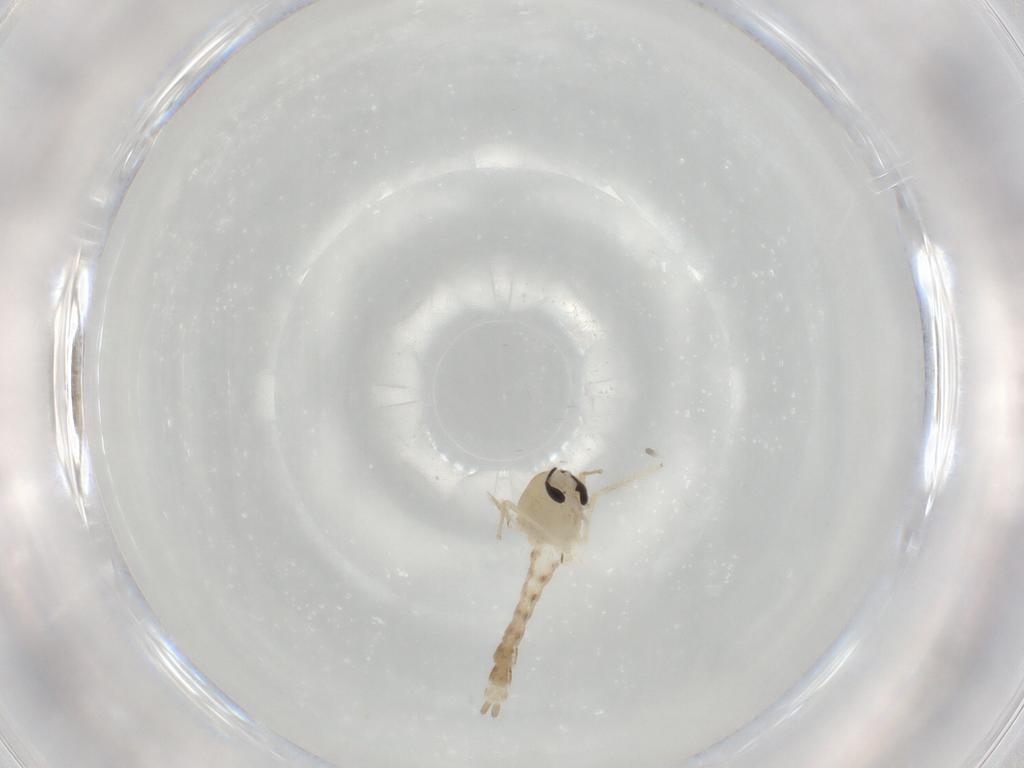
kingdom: Animalia
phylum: Arthropoda
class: Insecta
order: Diptera
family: Chironomidae
